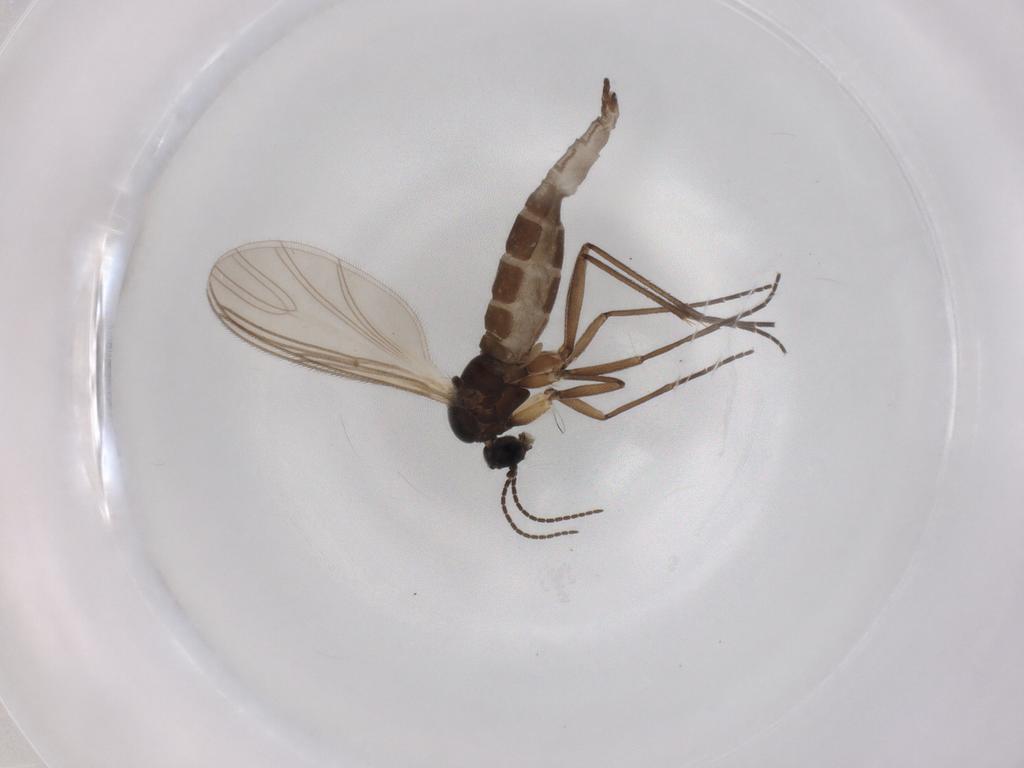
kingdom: Animalia
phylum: Arthropoda
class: Insecta
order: Diptera
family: Sciaridae
